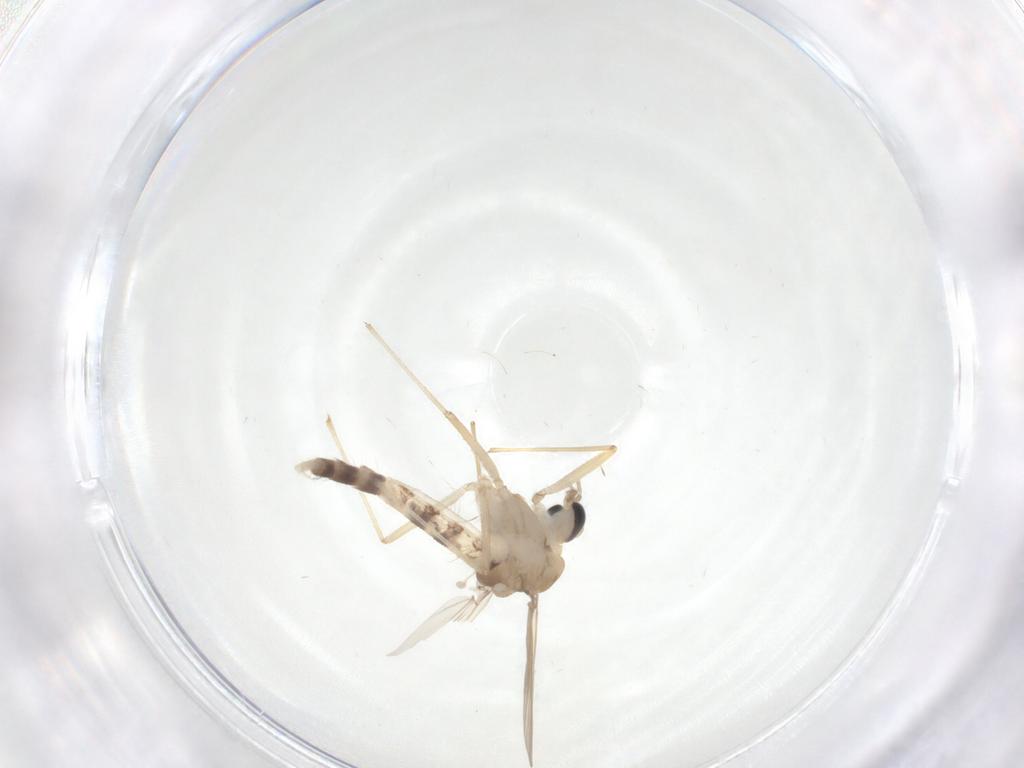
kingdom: Animalia
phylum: Arthropoda
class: Insecta
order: Diptera
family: Chironomidae
